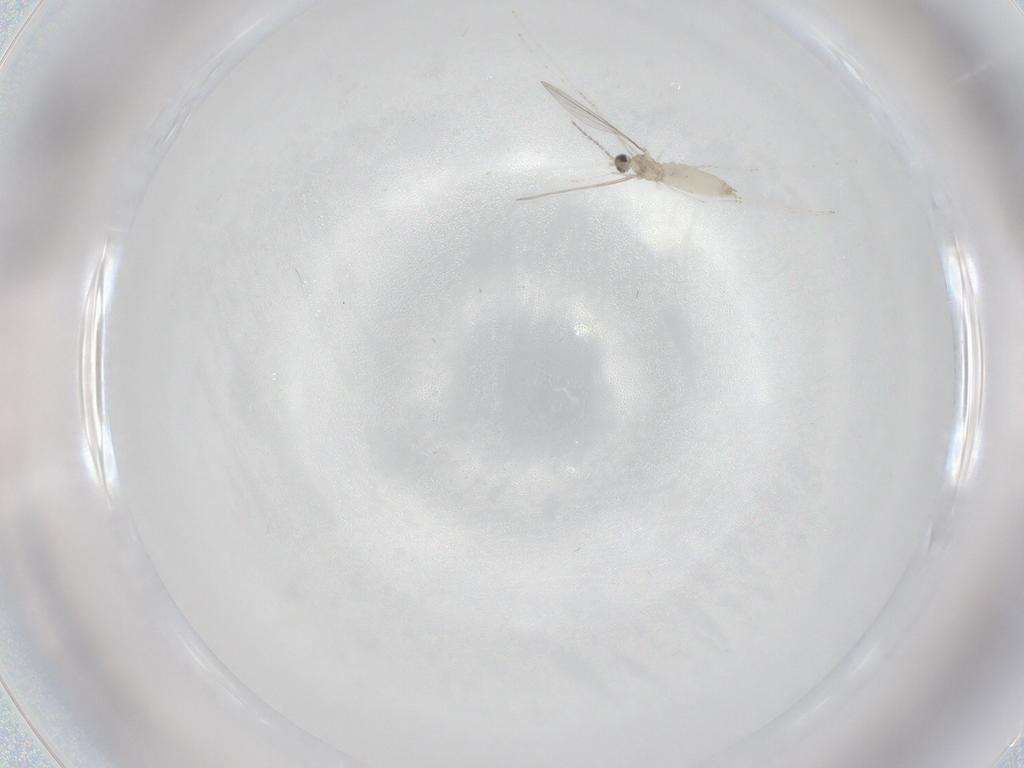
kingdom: Animalia
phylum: Arthropoda
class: Insecta
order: Diptera
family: Cecidomyiidae
